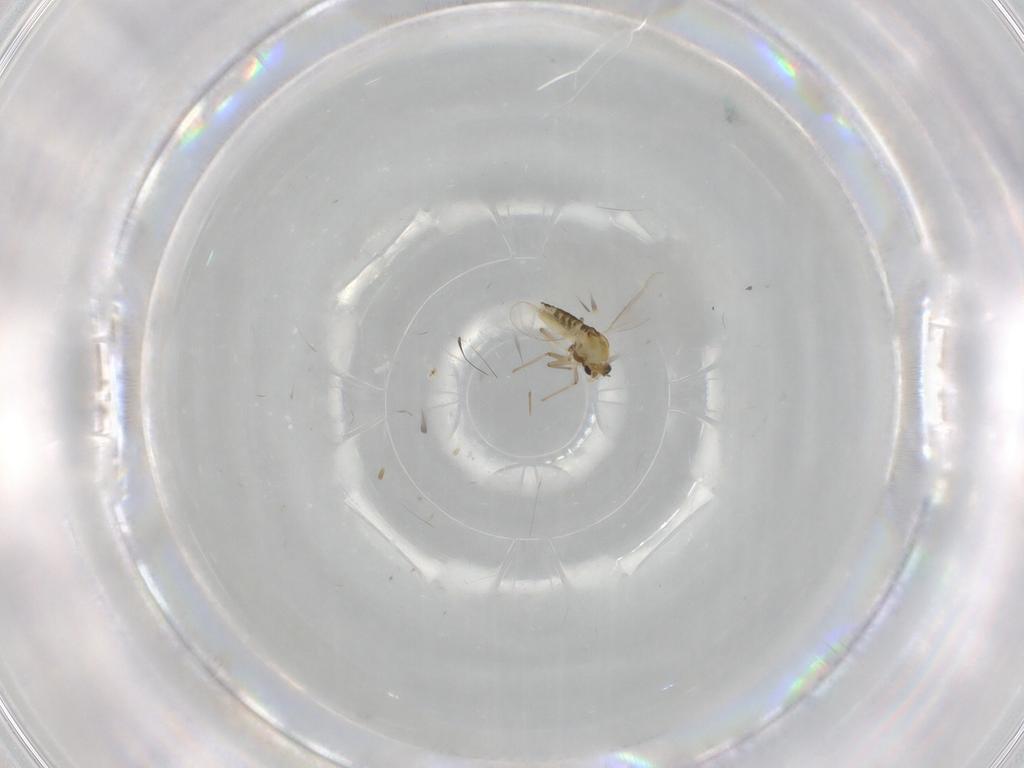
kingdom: Animalia
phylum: Arthropoda
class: Insecta
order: Diptera
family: Chironomidae
